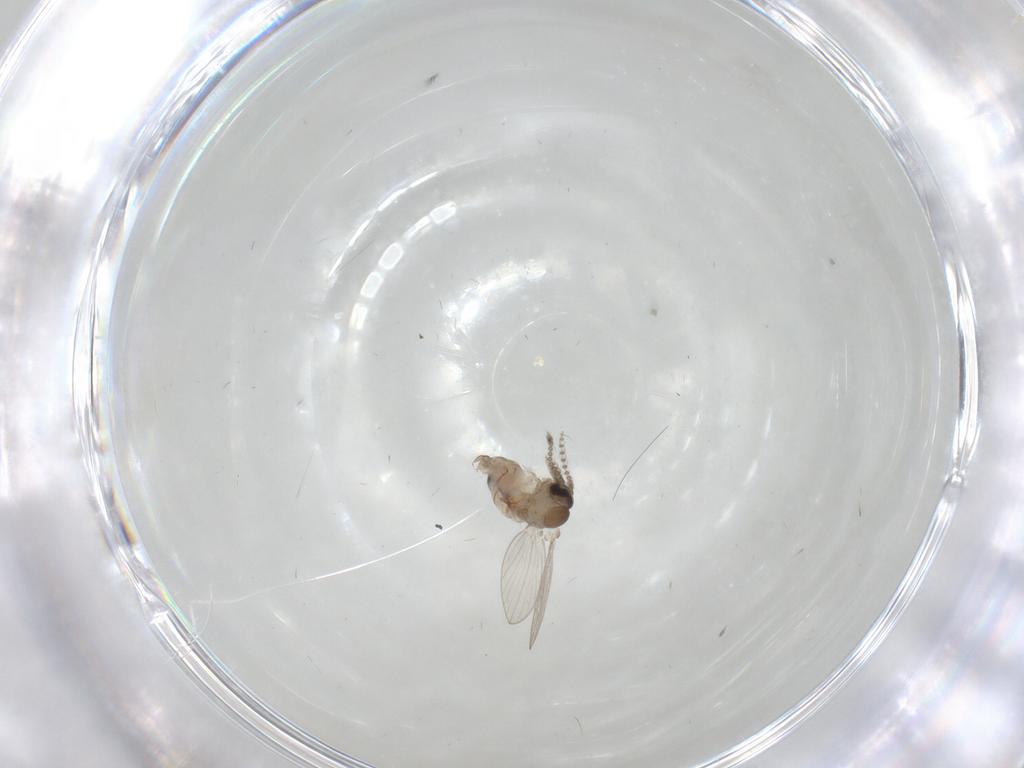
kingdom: Animalia
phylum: Arthropoda
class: Insecta
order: Diptera
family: Psychodidae
